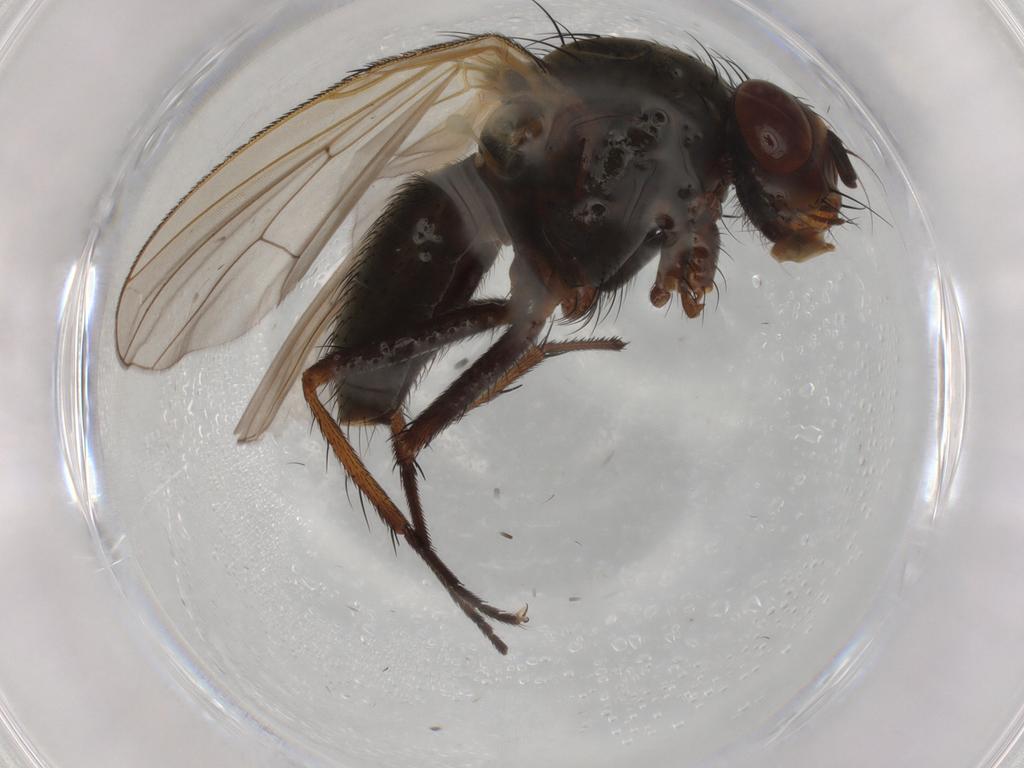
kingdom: Animalia
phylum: Arthropoda
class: Insecta
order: Diptera
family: Anthomyiidae
